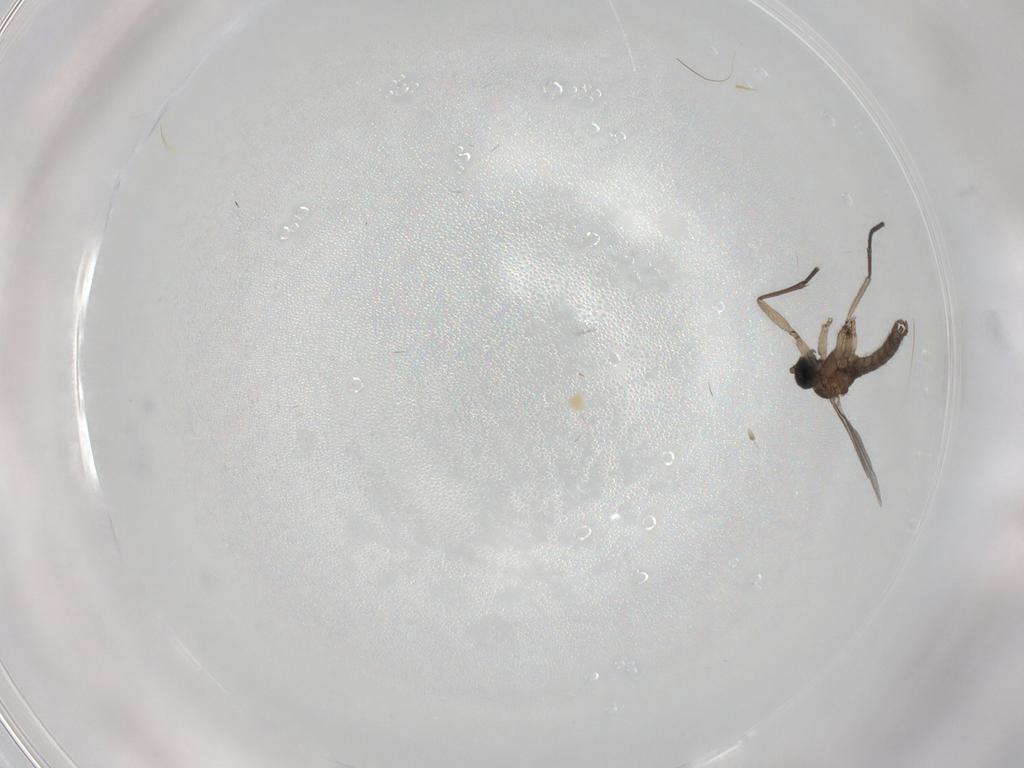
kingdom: Animalia
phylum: Arthropoda
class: Insecta
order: Diptera
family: Sciaridae
